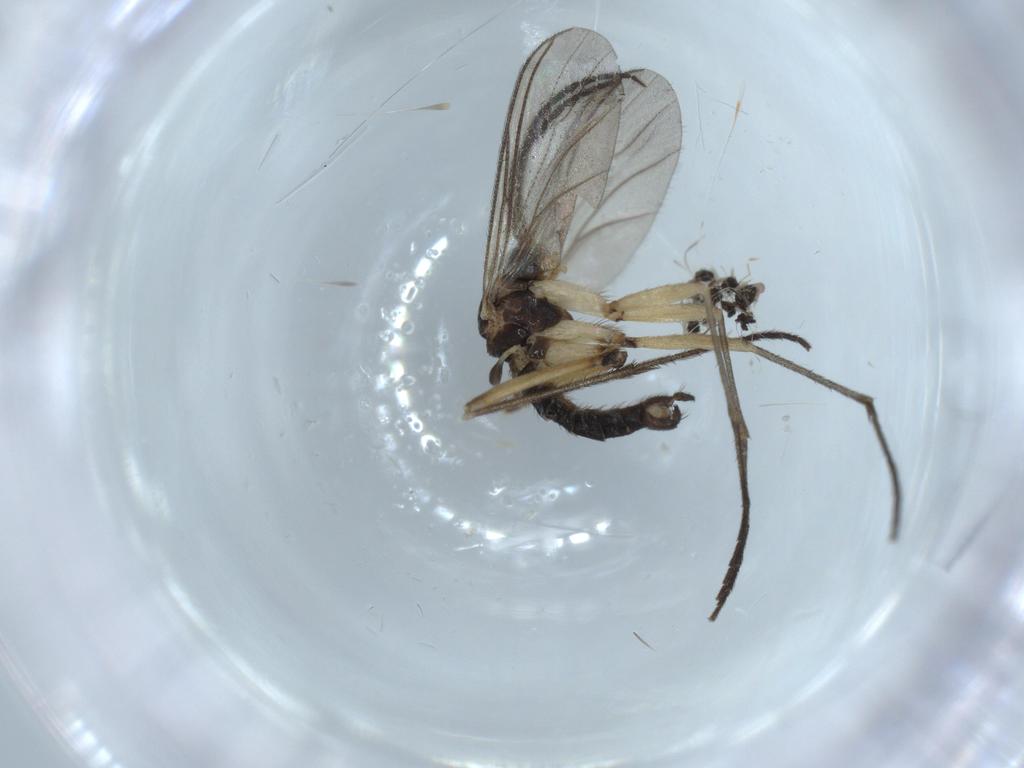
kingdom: Animalia
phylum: Arthropoda
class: Insecta
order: Diptera
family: Sciaridae
